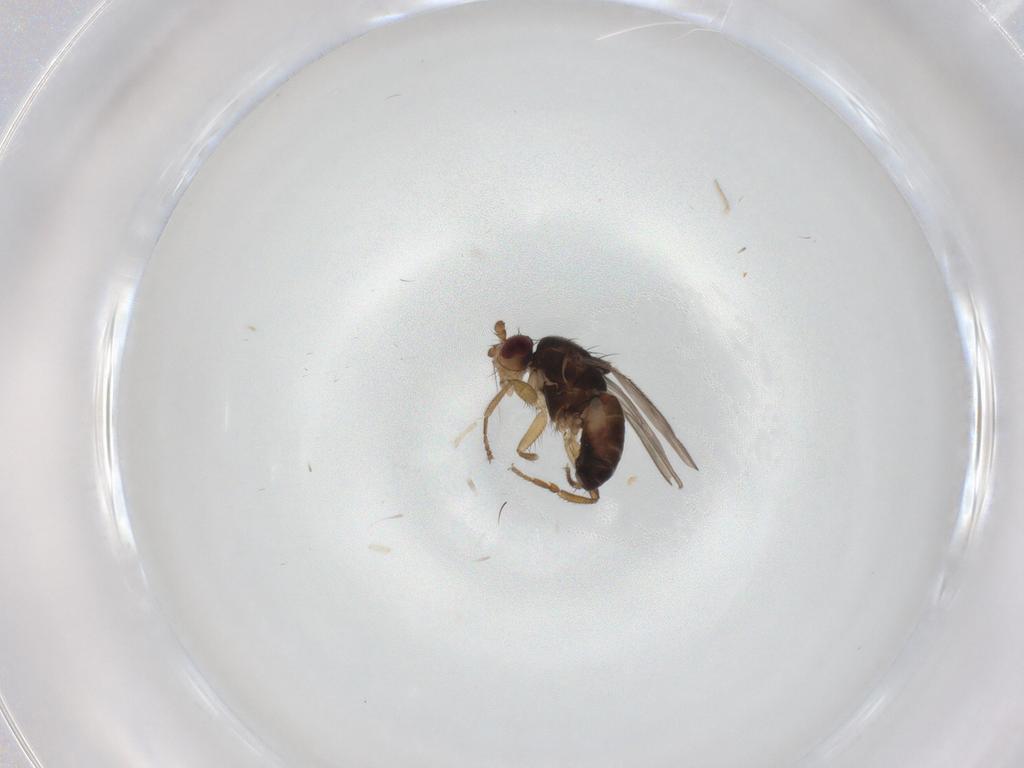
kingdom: Animalia
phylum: Arthropoda
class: Insecta
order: Diptera
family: Sphaeroceridae
